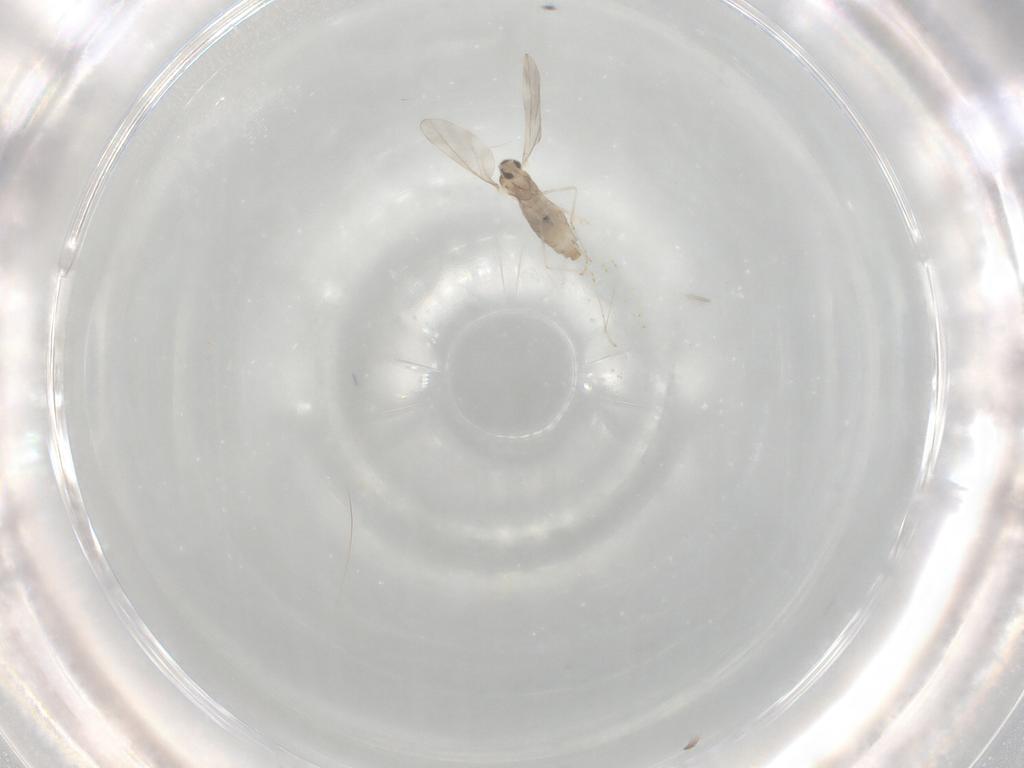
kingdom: Animalia
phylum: Arthropoda
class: Insecta
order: Diptera
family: Cecidomyiidae
